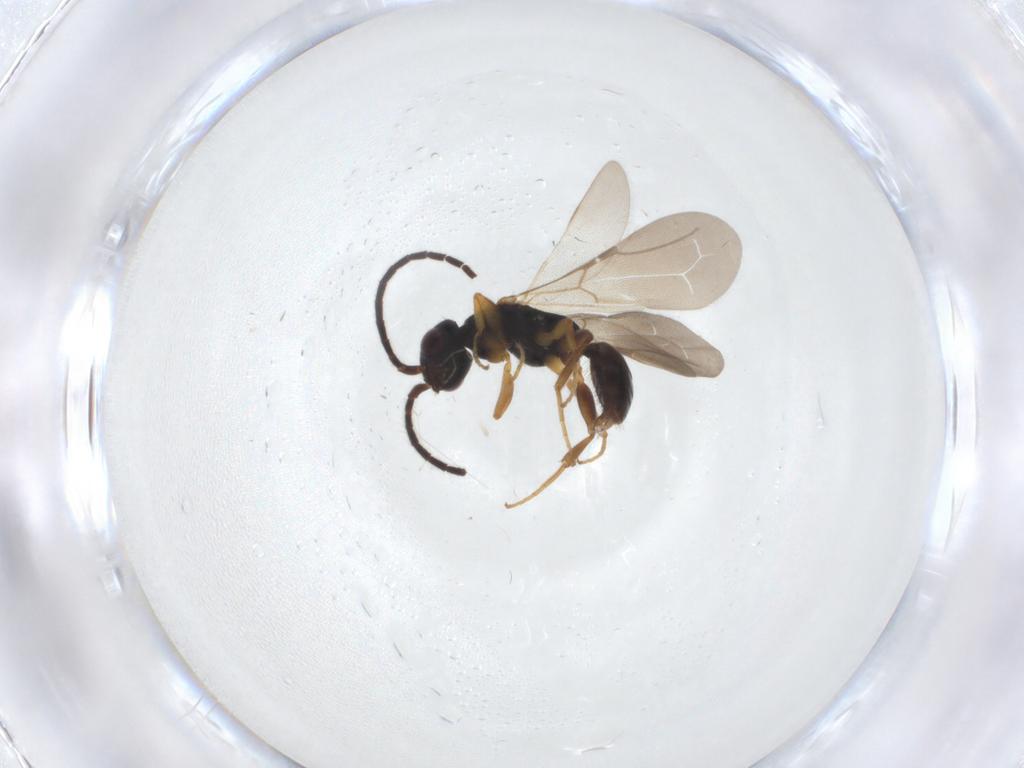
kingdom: Animalia
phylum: Arthropoda
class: Insecta
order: Hymenoptera
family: Bethylidae
